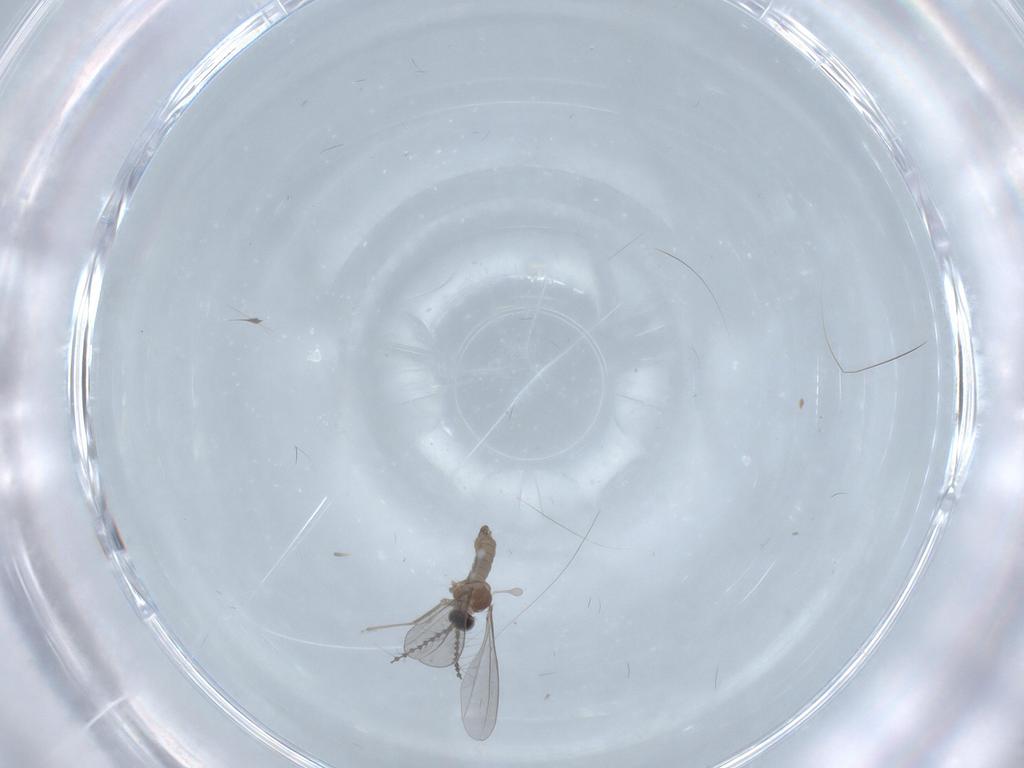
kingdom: Animalia
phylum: Arthropoda
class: Insecta
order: Diptera
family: Cecidomyiidae
